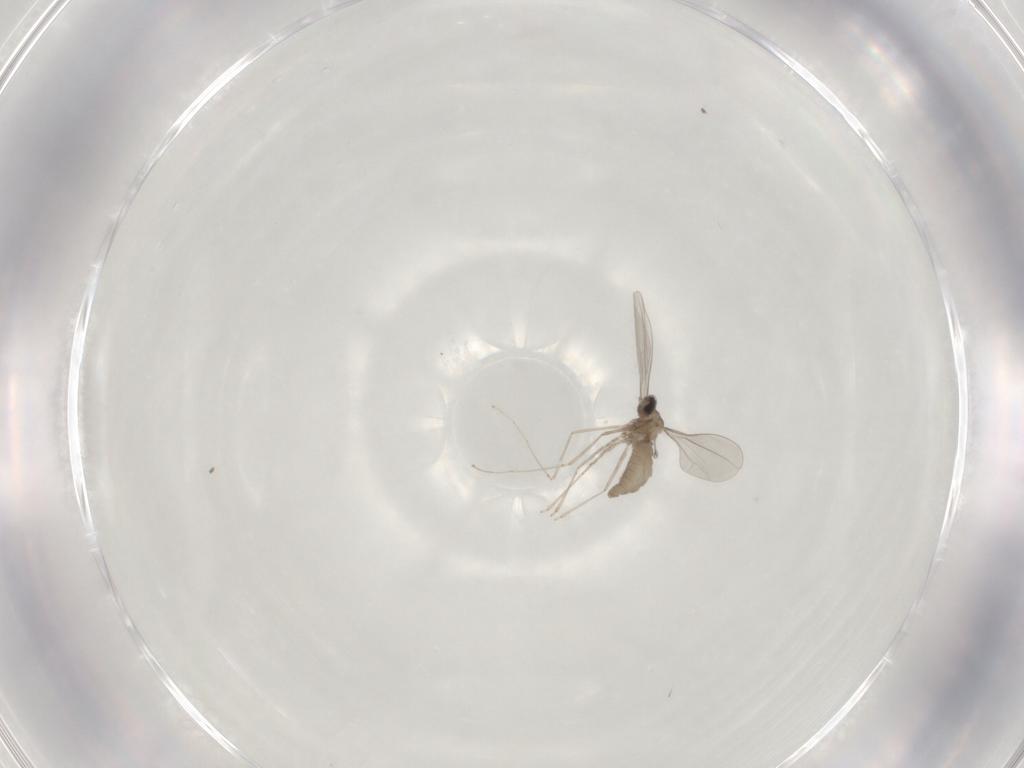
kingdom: Animalia
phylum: Arthropoda
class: Insecta
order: Diptera
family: Cecidomyiidae
